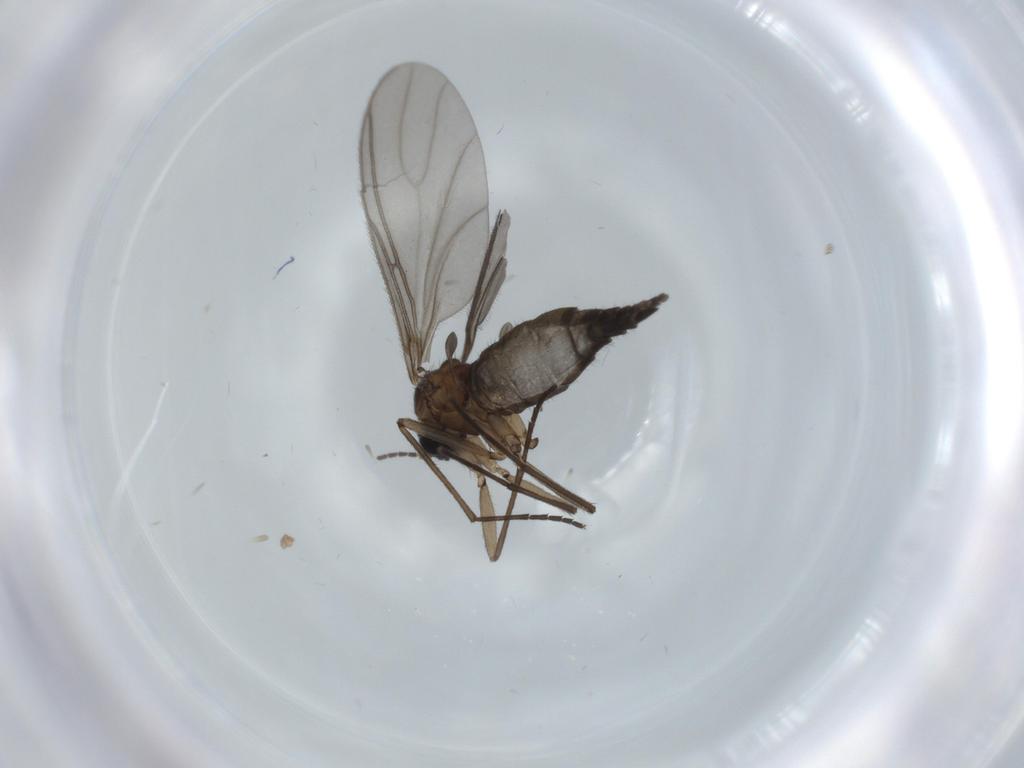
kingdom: Animalia
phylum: Arthropoda
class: Insecta
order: Diptera
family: Sciaridae
